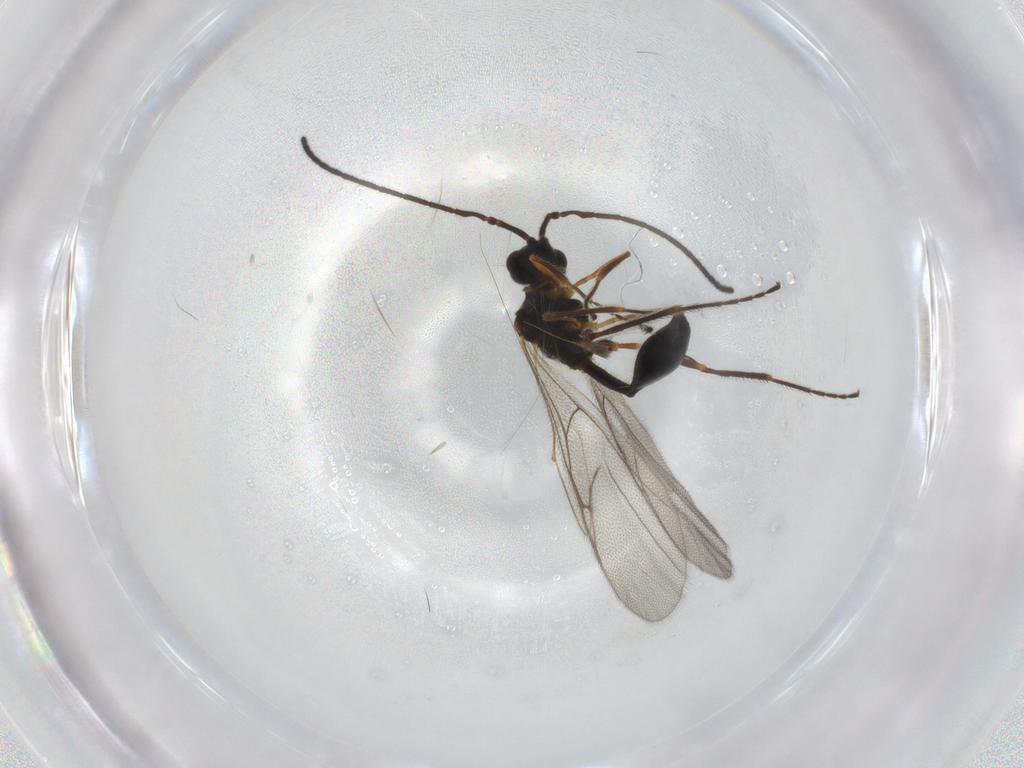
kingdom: Animalia
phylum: Arthropoda
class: Insecta
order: Hymenoptera
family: Diapriidae
